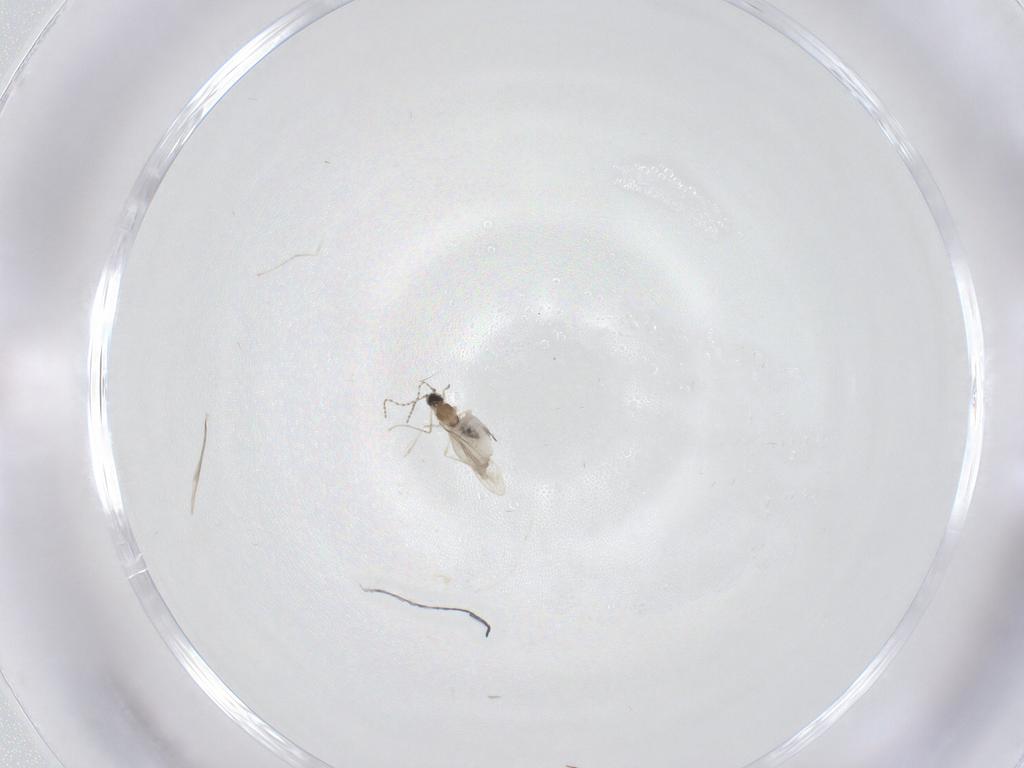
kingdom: Animalia
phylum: Arthropoda
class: Insecta
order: Diptera
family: Cecidomyiidae
